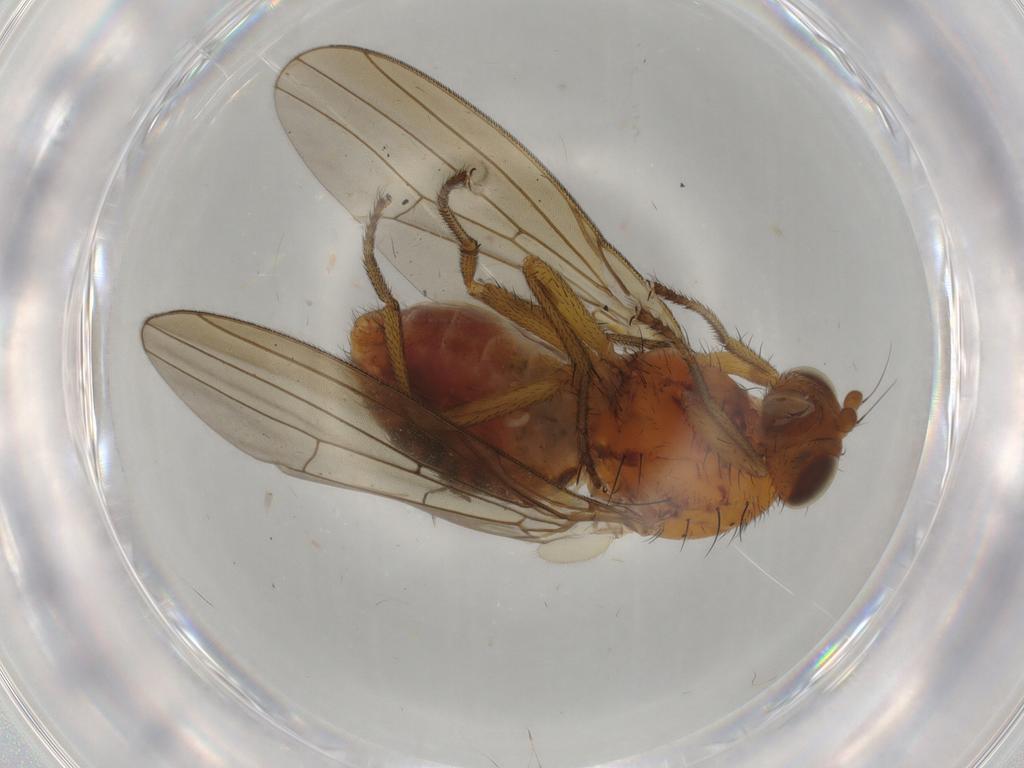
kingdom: Animalia
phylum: Arthropoda
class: Insecta
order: Diptera
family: Chironomidae
